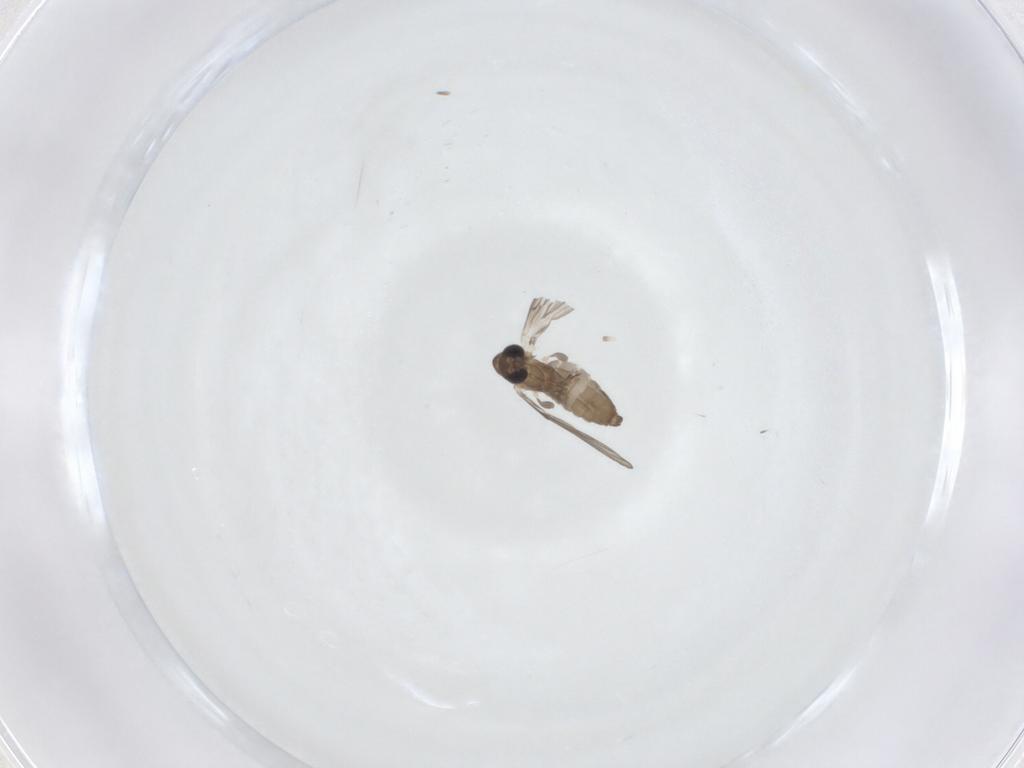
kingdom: Animalia
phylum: Arthropoda
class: Insecta
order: Diptera
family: Psychodidae
